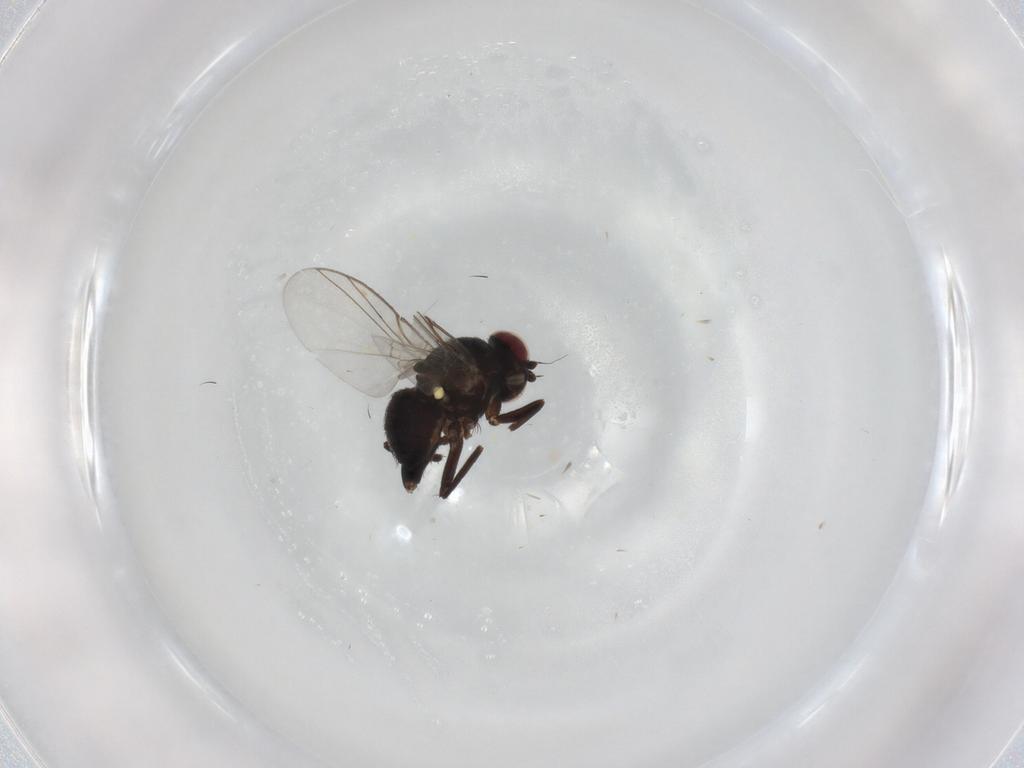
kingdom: Animalia
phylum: Arthropoda
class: Insecta
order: Diptera
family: Agromyzidae
